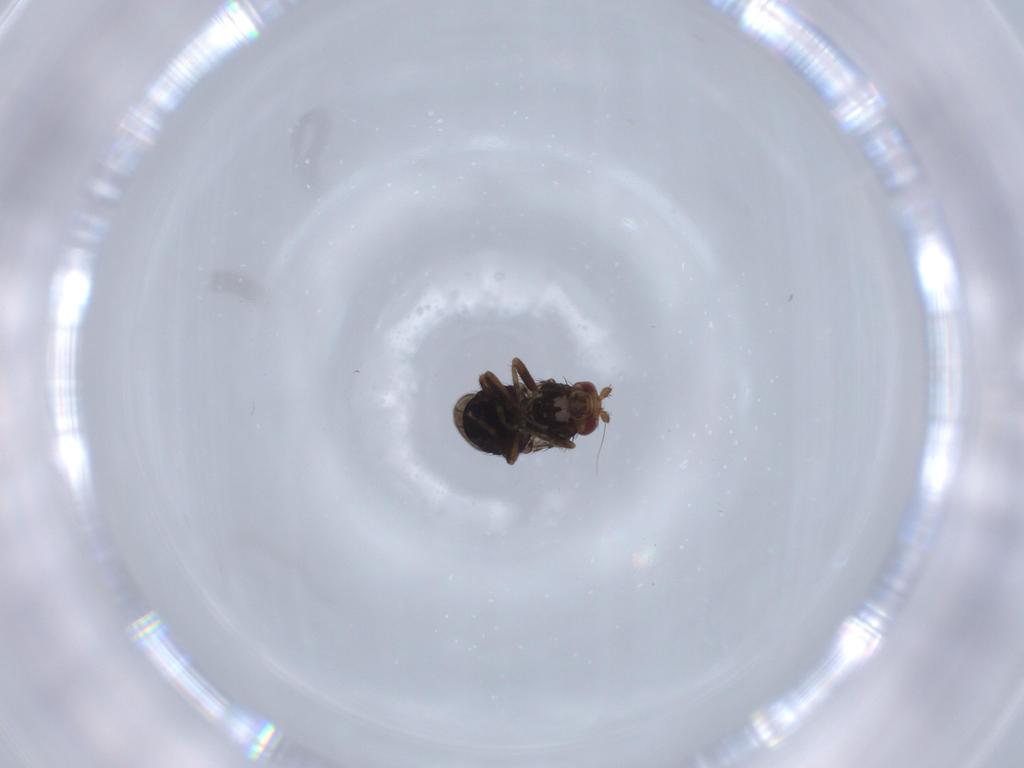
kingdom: Animalia
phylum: Arthropoda
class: Insecta
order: Diptera
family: Sphaeroceridae
